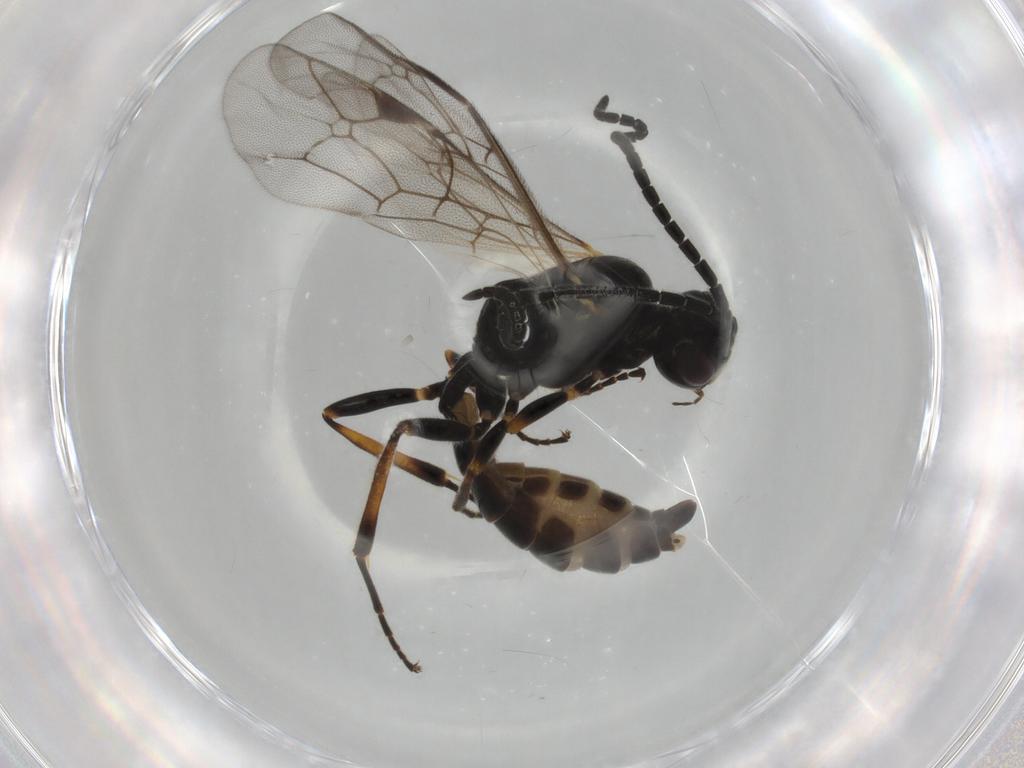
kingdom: Animalia
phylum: Arthropoda
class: Insecta
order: Hymenoptera
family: Ichneumonidae
